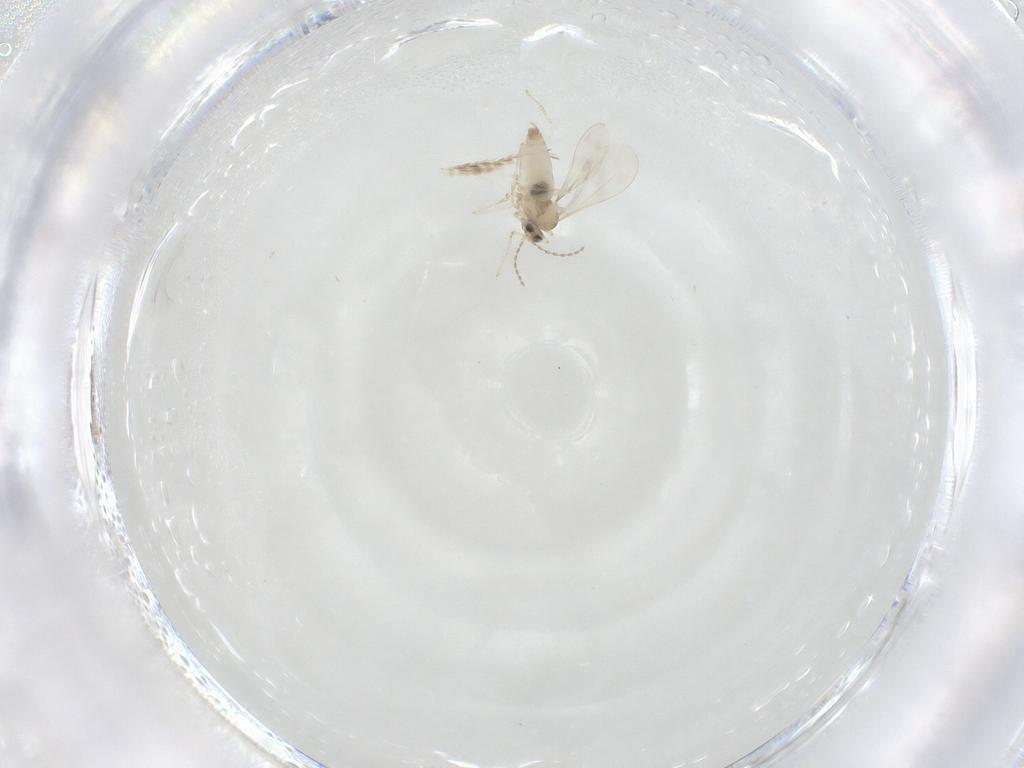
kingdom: Animalia
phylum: Arthropoda
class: Insecta
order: Diptera
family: Cecidomyiidae
